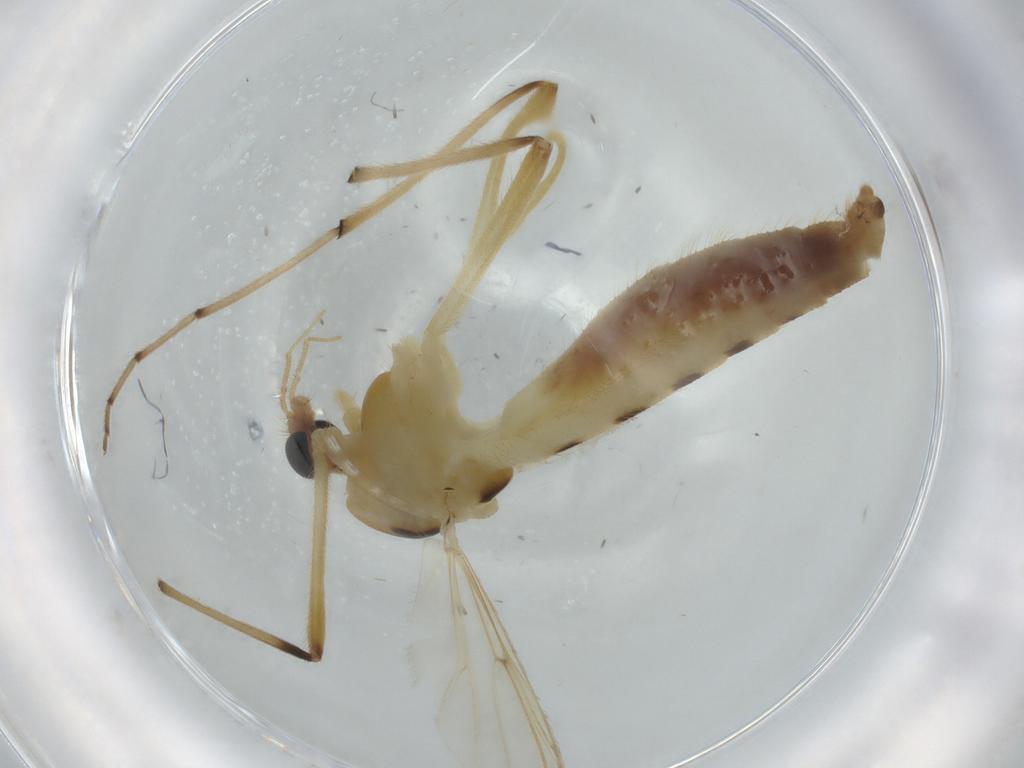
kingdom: Animalia
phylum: Arthropoda
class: Insecta
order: Diptera
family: Chironomidae
